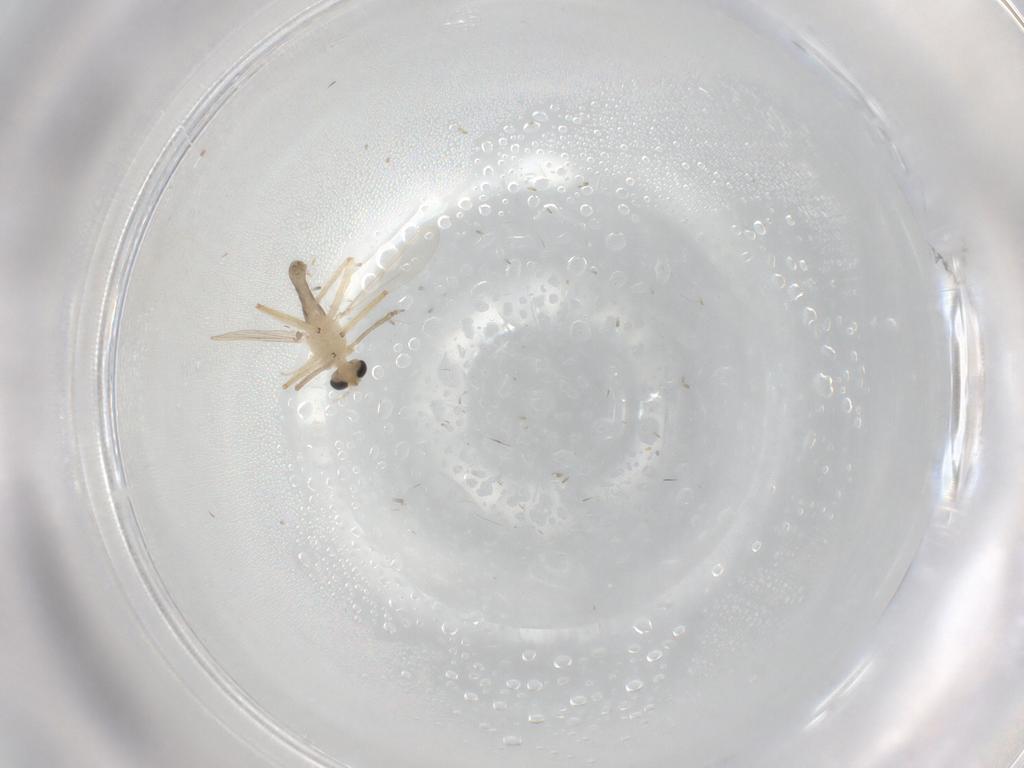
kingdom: Animalia
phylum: Arthropoda
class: Insecta
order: Diptera
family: Chironomidae
